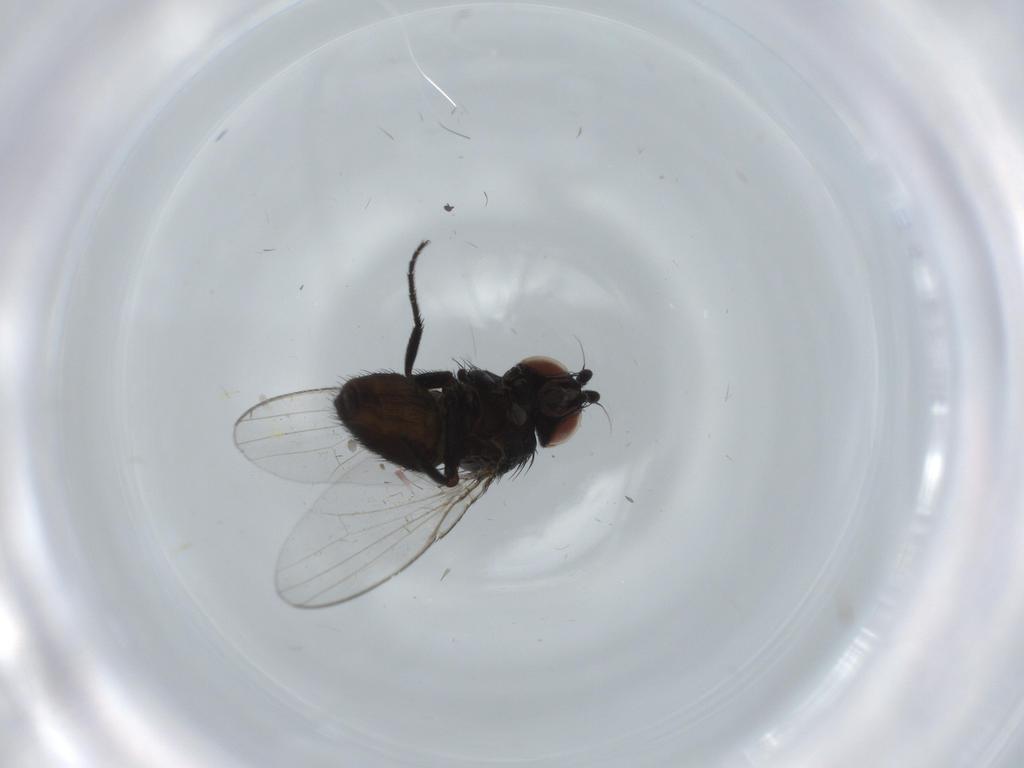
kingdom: Animalia
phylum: Arthropoda
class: Insecta
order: Diptera
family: Milichiidae
